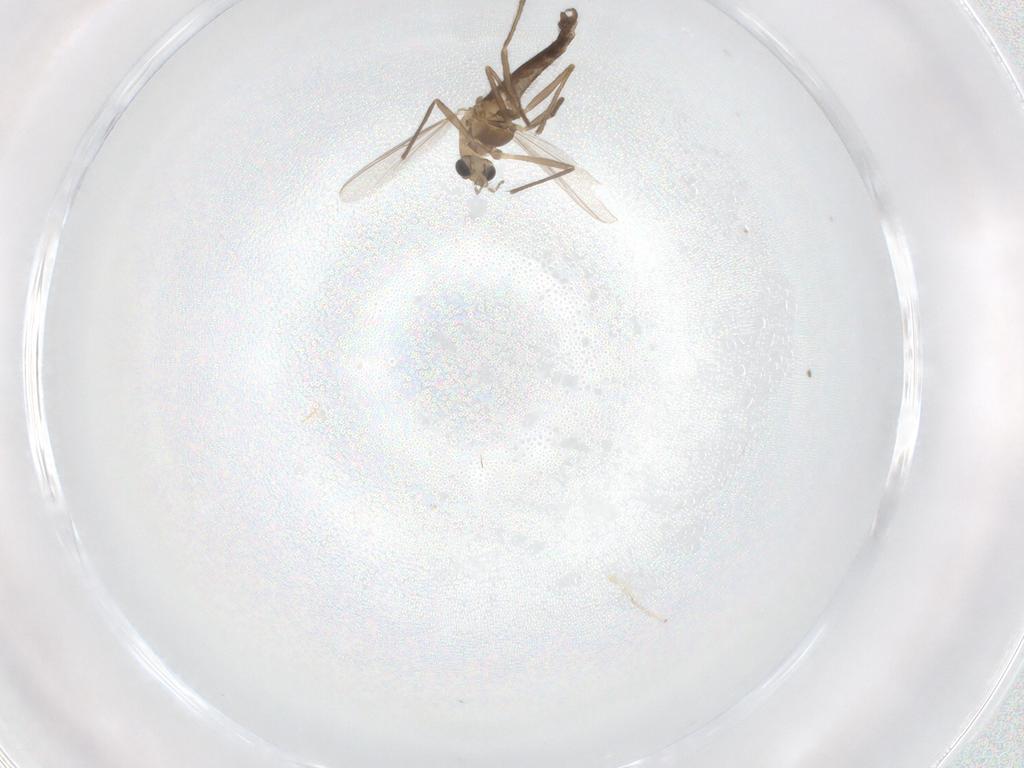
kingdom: Animalia
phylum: Arthropoda
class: Insecta
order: Diptera
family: Chironomidae
